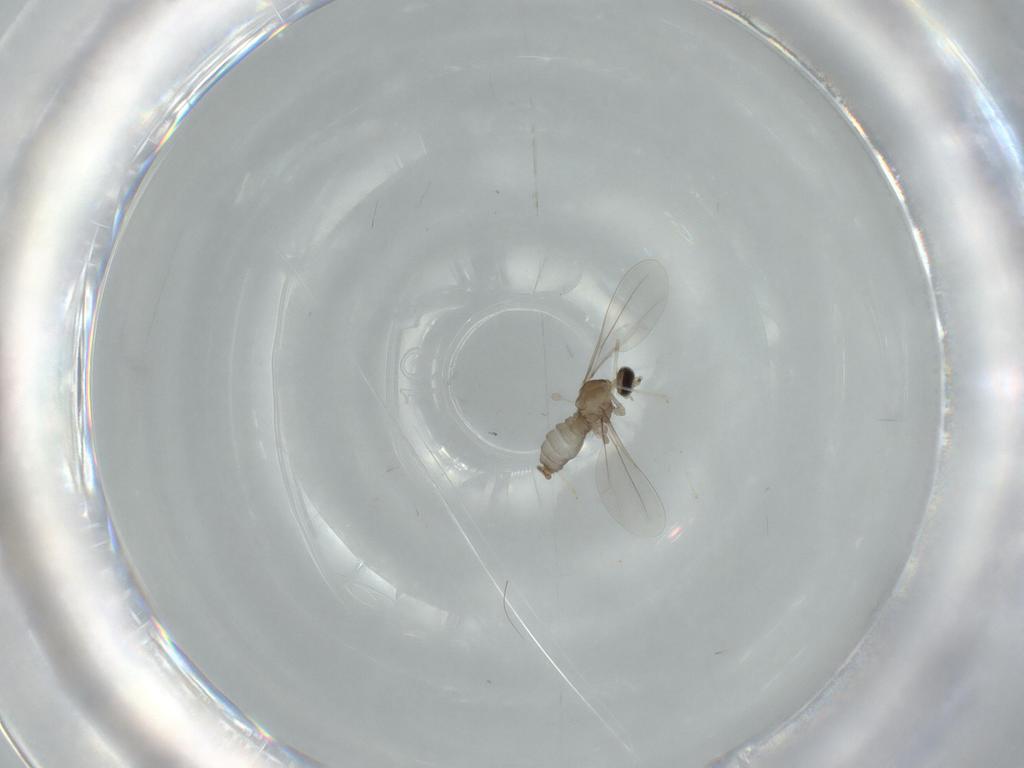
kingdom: Animalia
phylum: Arthropoda
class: Insecta
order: Diptera
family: Cecidomyiidae
